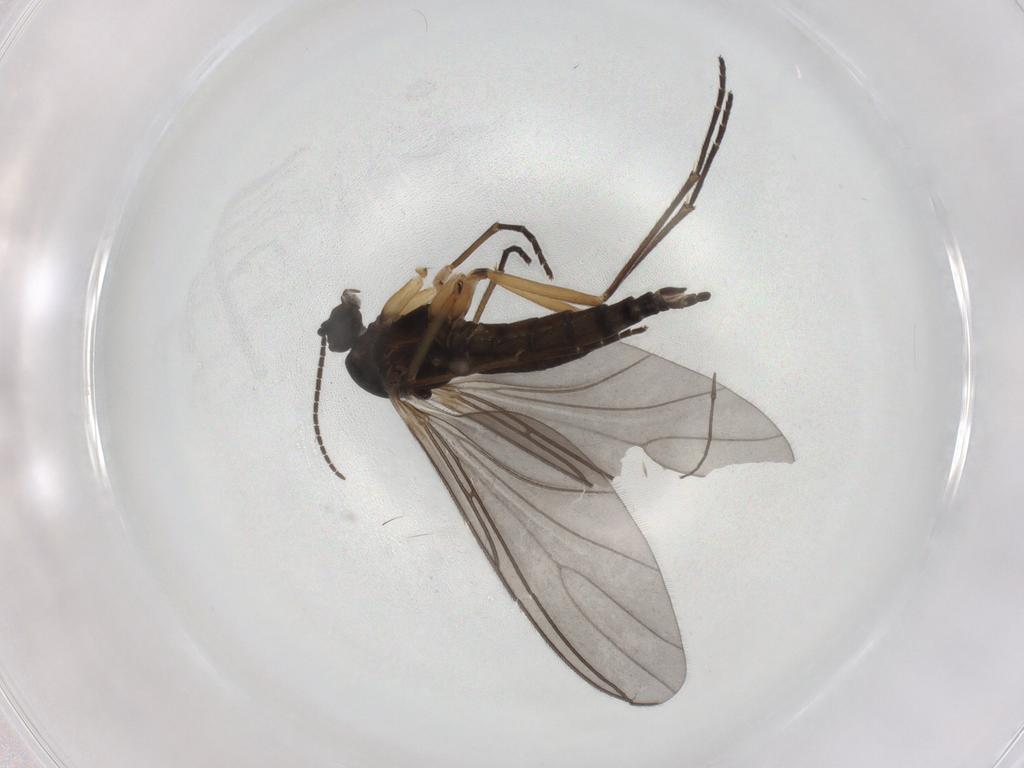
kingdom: Animalia
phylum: Arthropoda
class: Insecta
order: Diptera
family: Sciaridae
